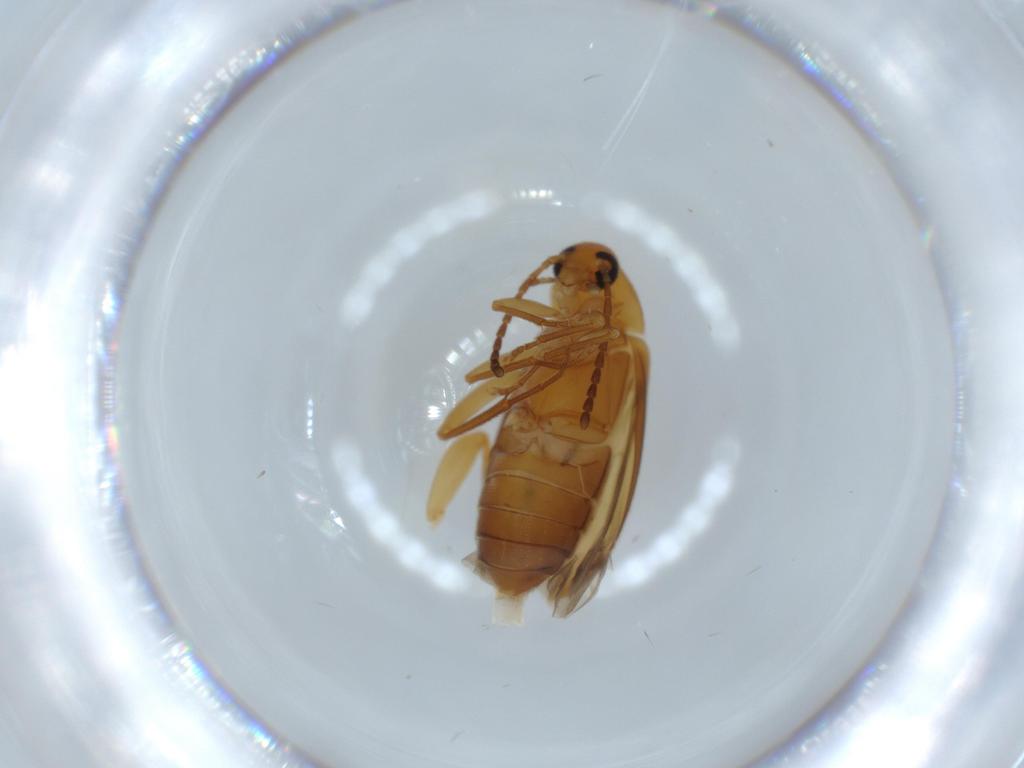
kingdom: Animalia
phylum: Arthropoda
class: Insecta
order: Coleoptera
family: Scraptiidae
